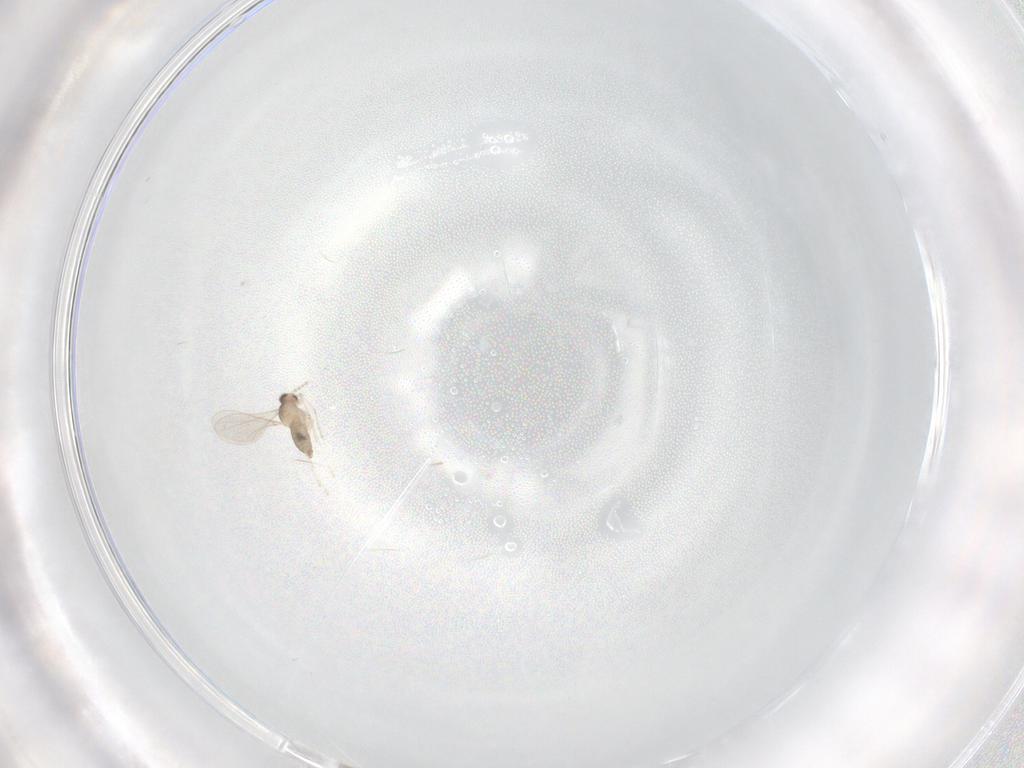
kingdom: Animalia
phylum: Arthropoda
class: Insecta
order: Diptera
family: Cecidomyiidae
